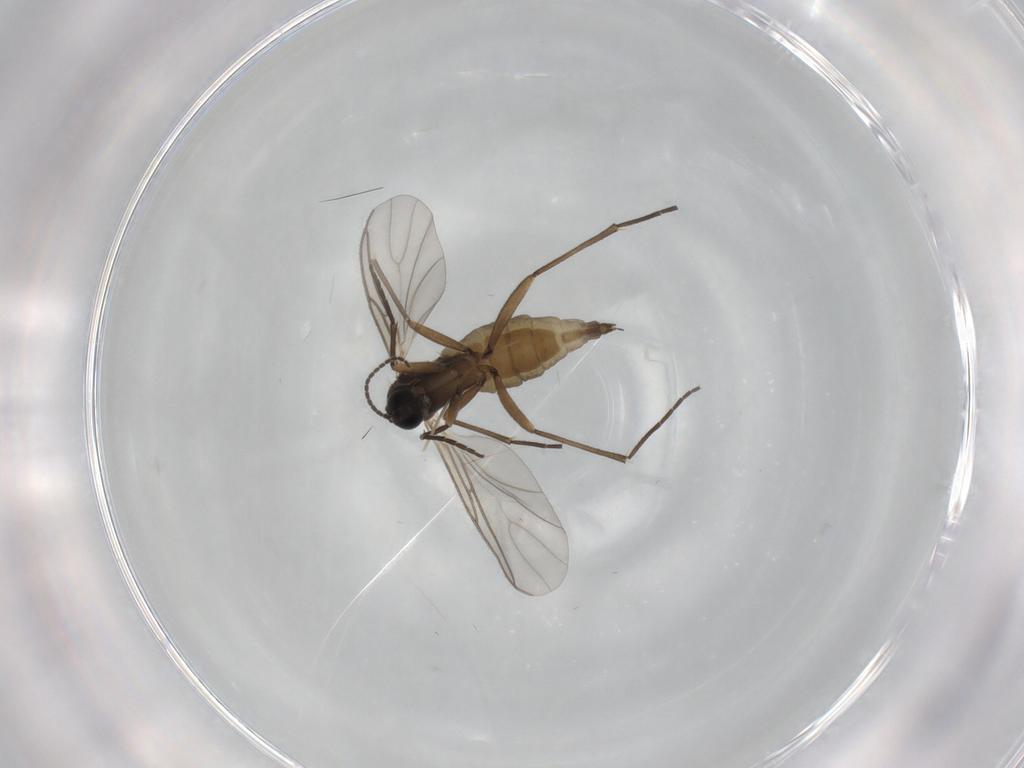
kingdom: Animalia
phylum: Arthropoda
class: Insecta
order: Diptera
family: Sciaridae
